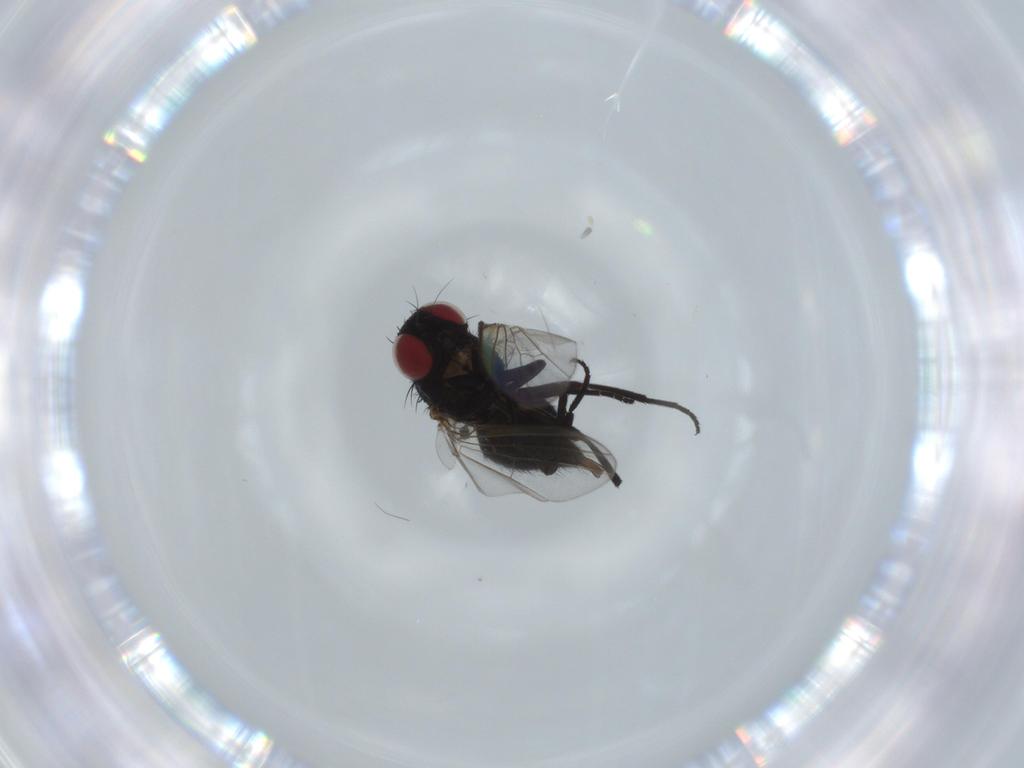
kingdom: Animalia
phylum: Arthropoda
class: Insecta
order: Diptera
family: Agromyzidae
